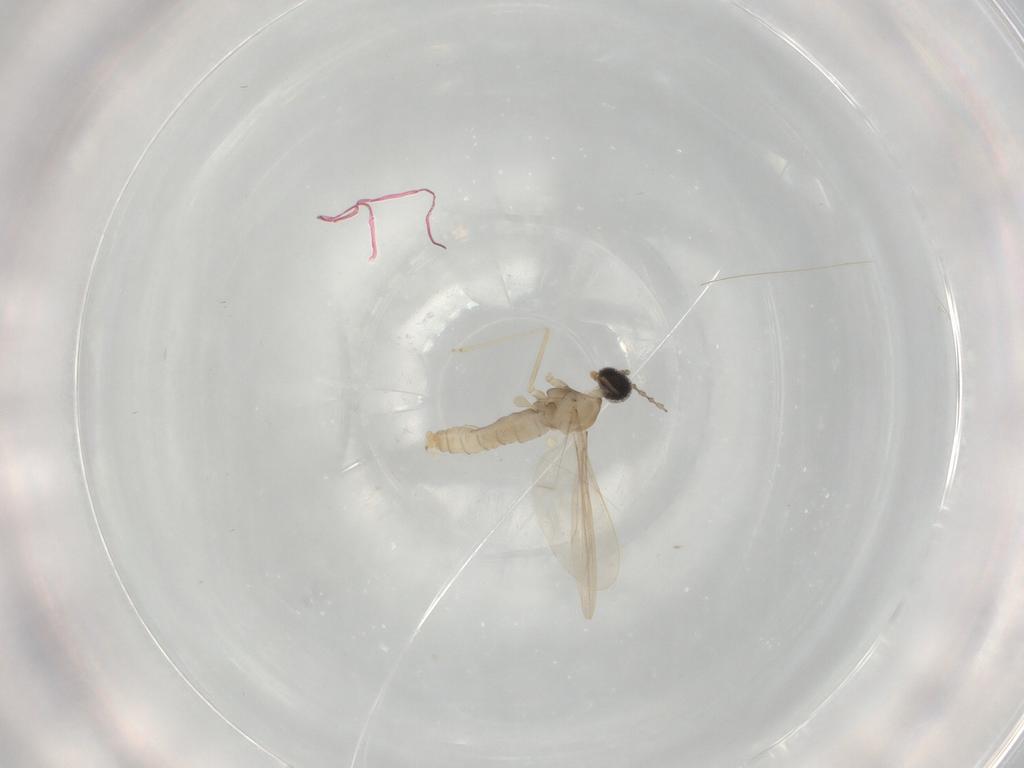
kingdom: Animalia
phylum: Arthropoda
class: Insecta
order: Diptera
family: Cecidomyiidae
